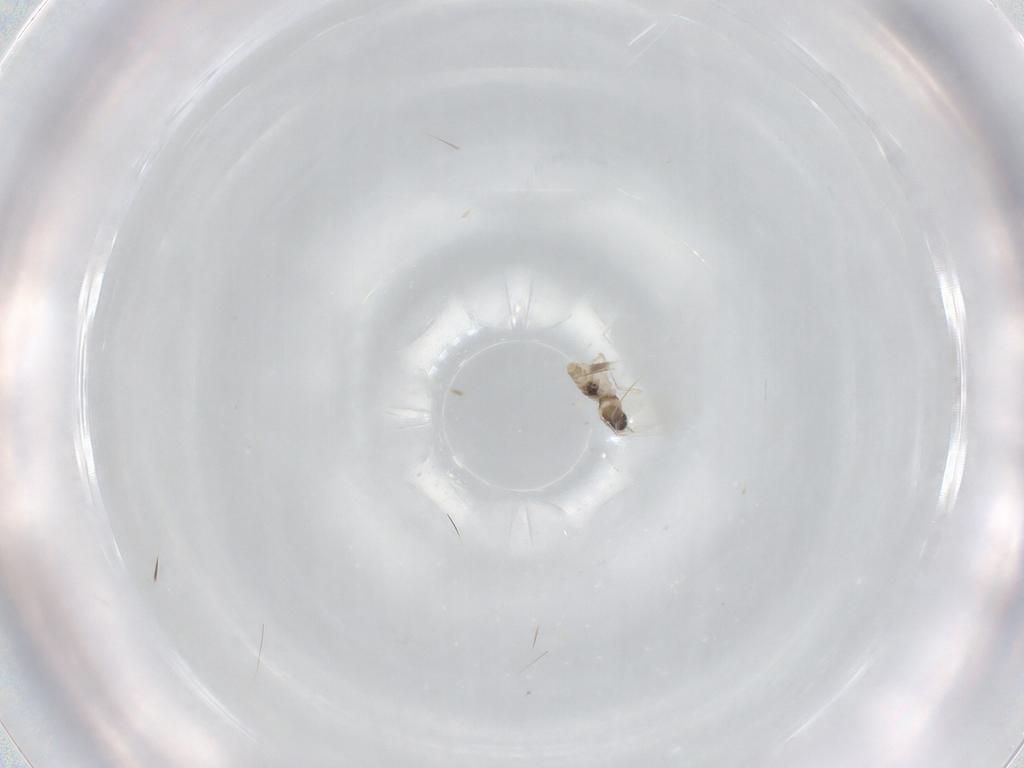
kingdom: Animalia
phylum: Arthropoda
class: Insecta
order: Diptera
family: Cecidomyiidae
